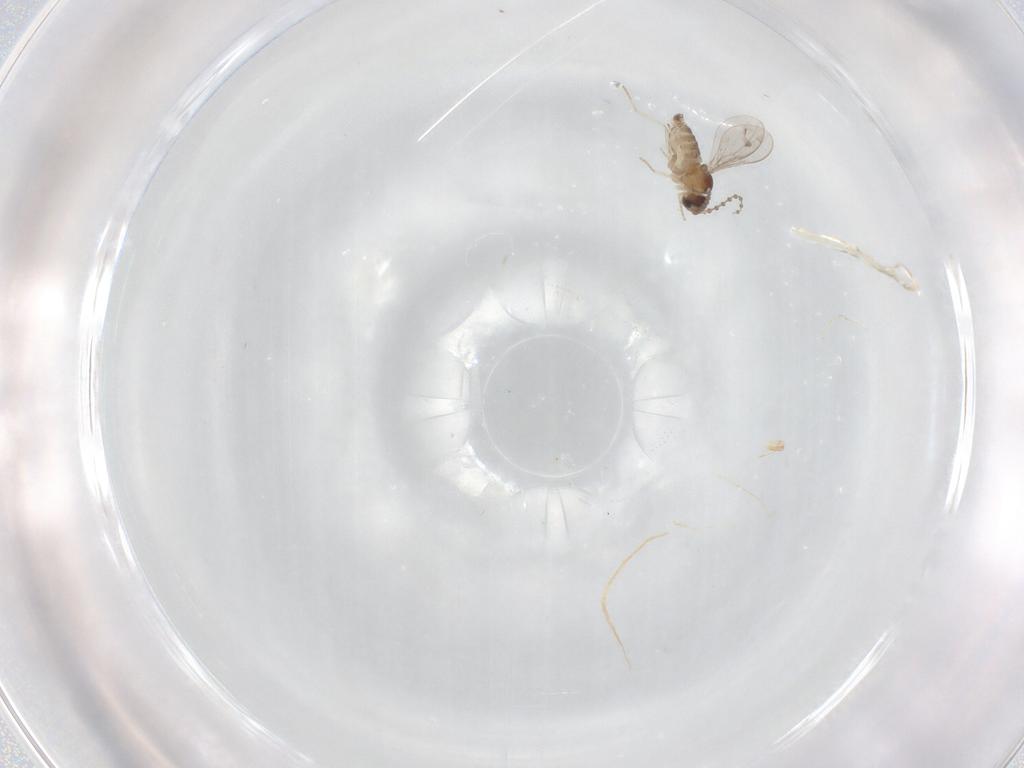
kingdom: Animalia
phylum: Arthropoda
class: Insecta
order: Diptera
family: Cecidomyiidae
